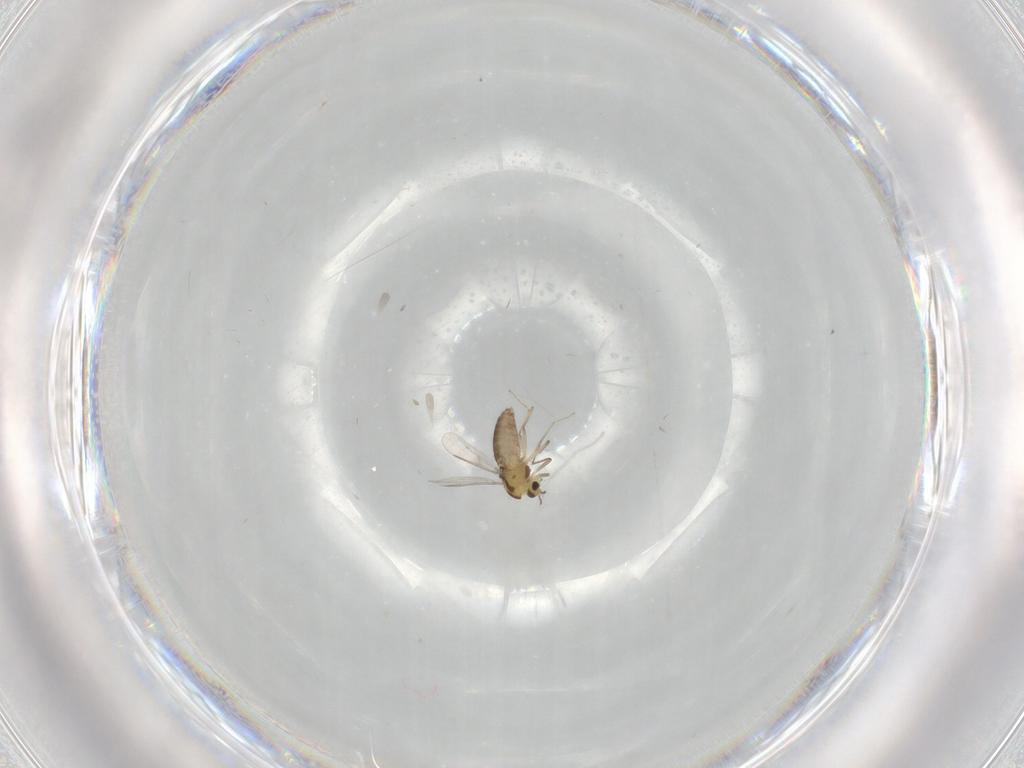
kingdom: Animalia
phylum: Arthropoda
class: Insecta
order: Diptera
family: Chironomidae
